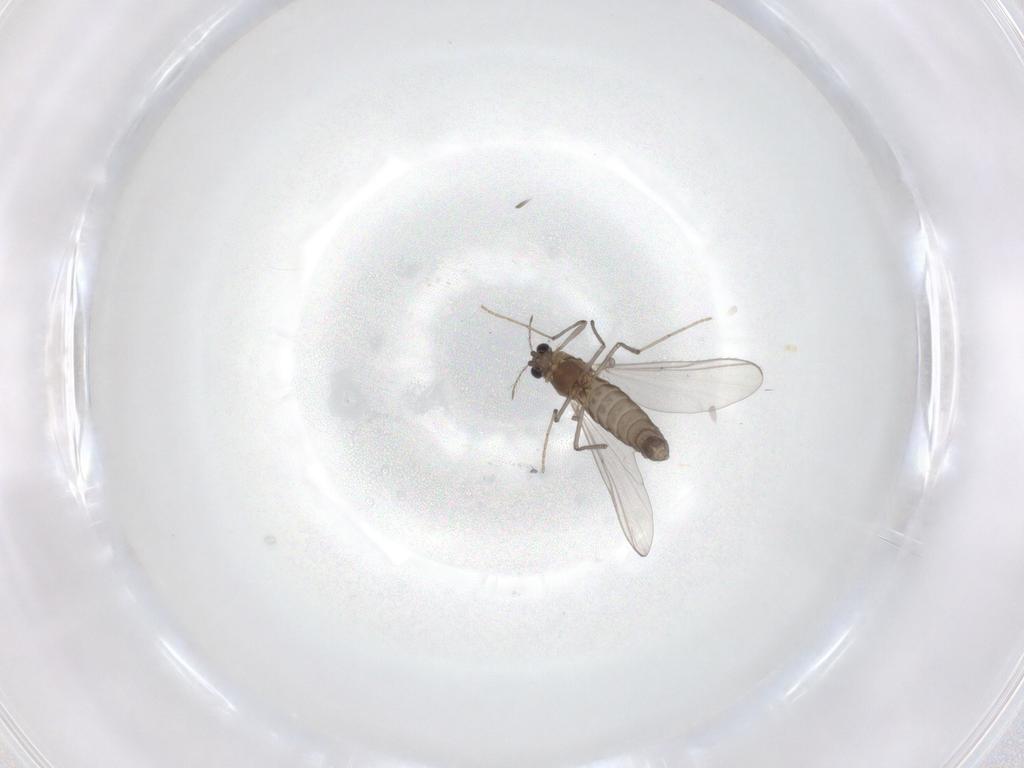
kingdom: Animalia
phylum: Arthropoda
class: Insecta
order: Diptera
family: Chironomidae
